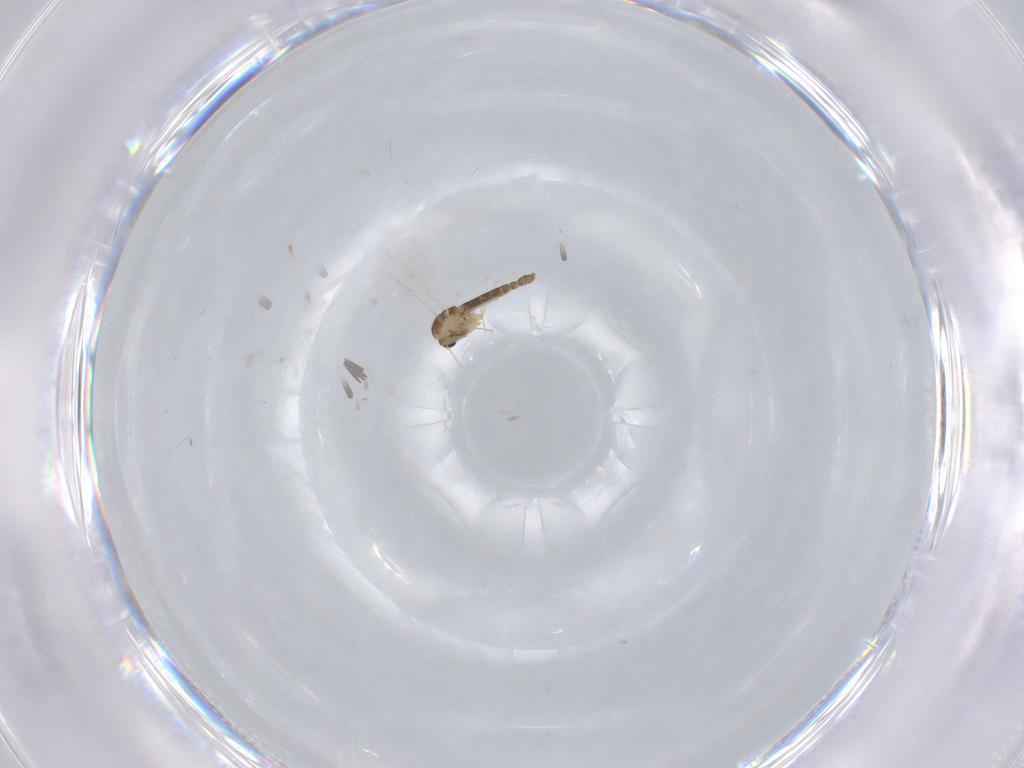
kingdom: Animalia
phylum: Arthropoda
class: Insecta
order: Diptera
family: Chironomidae
